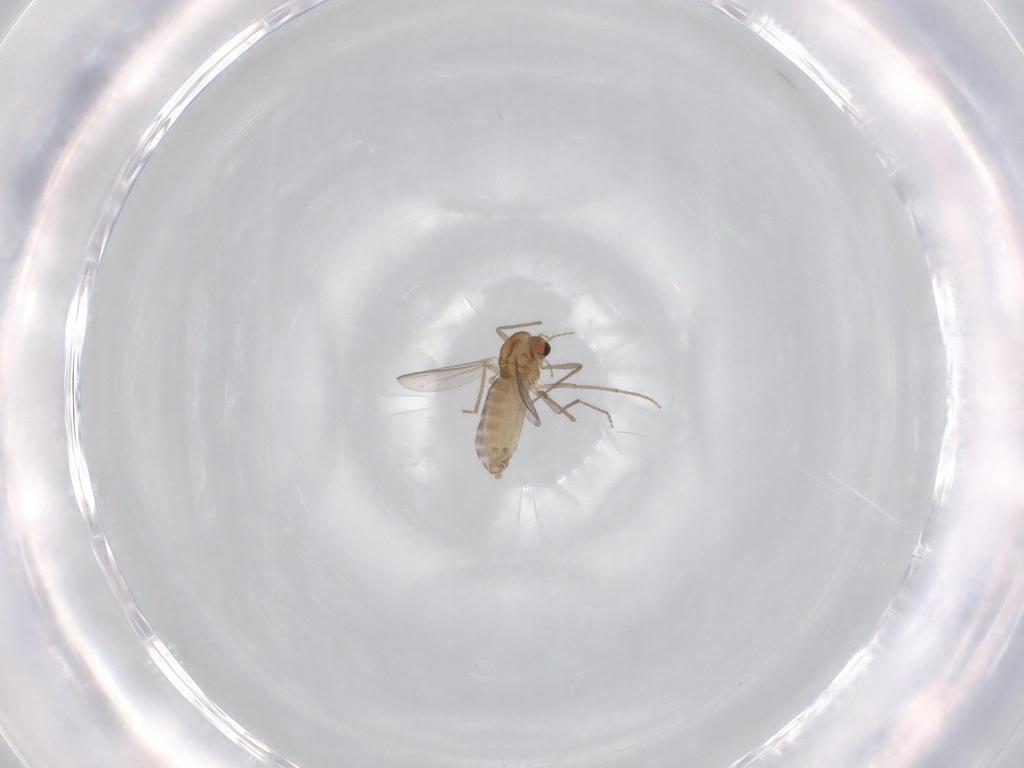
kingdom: Animalia
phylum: Arthropoda
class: Insecta
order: Diptera
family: Chironomidae
